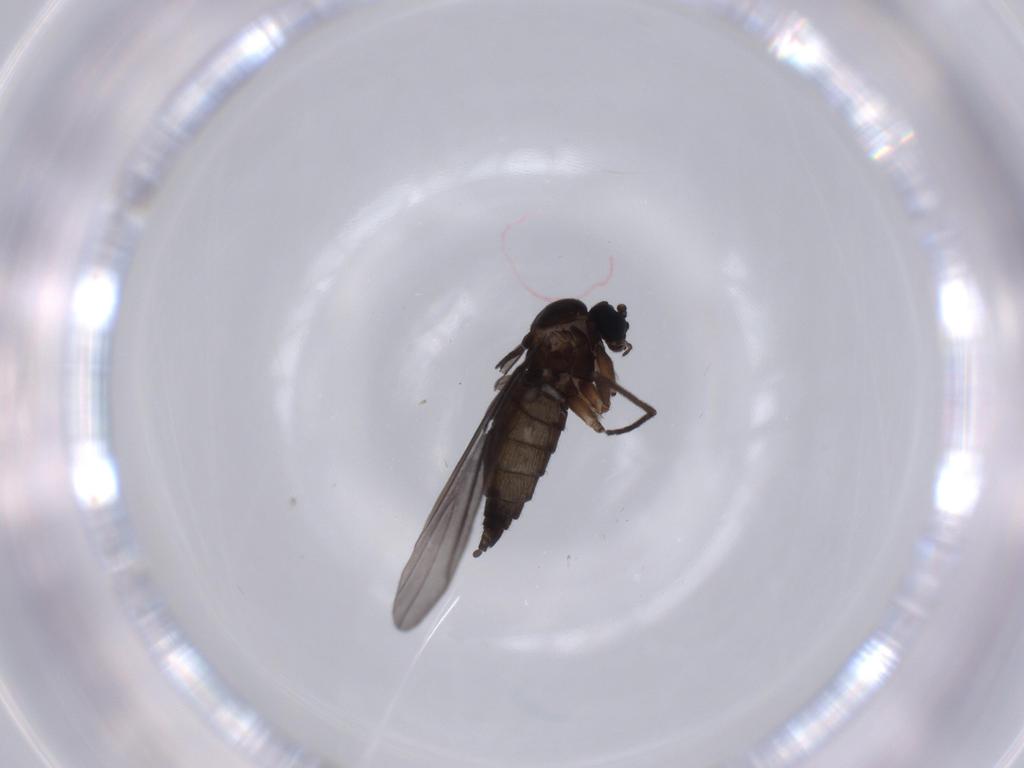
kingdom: Animalia
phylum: Arthropoda
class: Insecta
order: Diptera
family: Sciaridae
